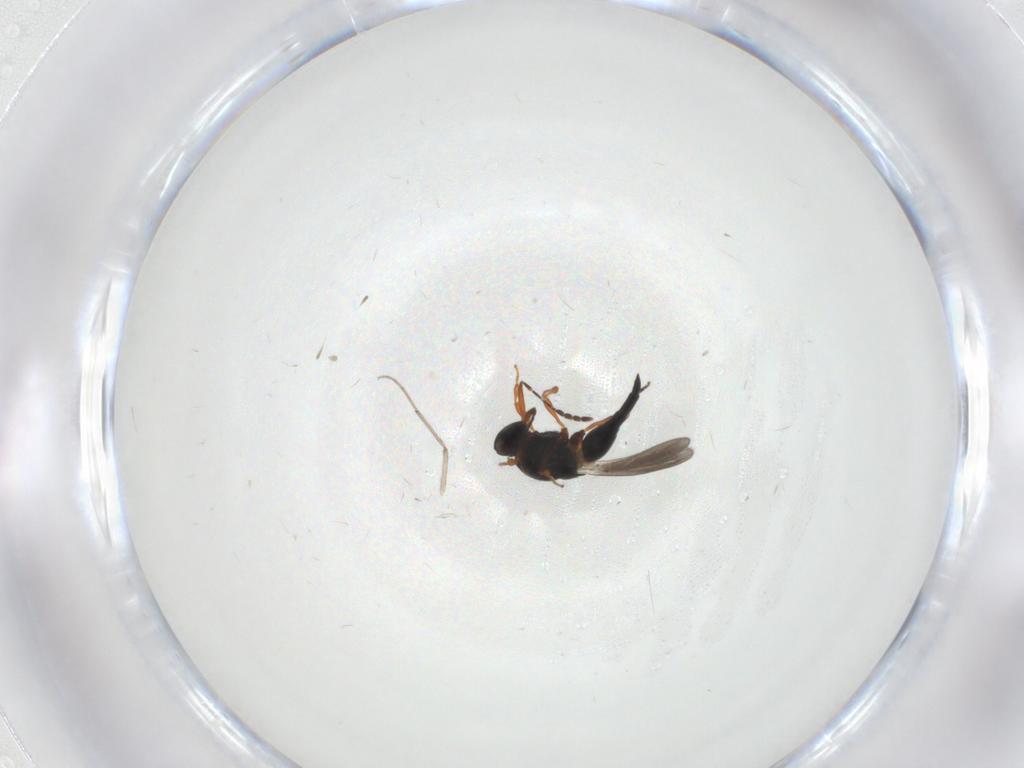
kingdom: Animalia
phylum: Arthropoda
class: Insecta
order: Hymenoptera
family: Platygastridae
